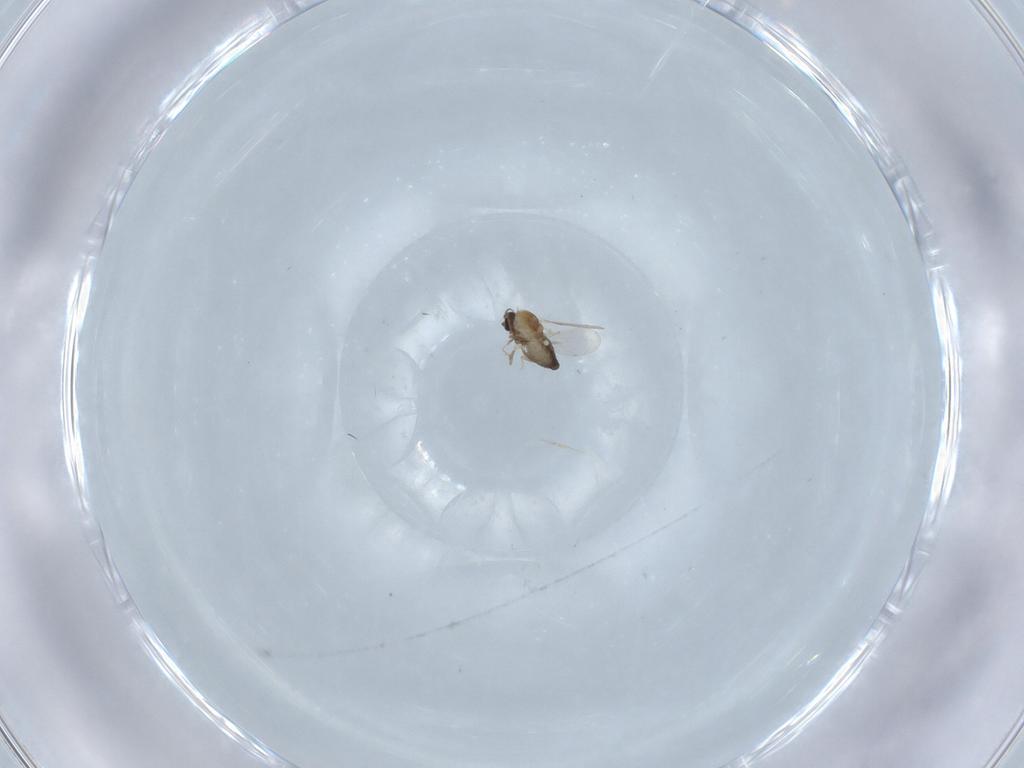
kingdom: Animalia
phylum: Arthropoda
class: Insecta
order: Diptera
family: Ceratopogonidae
